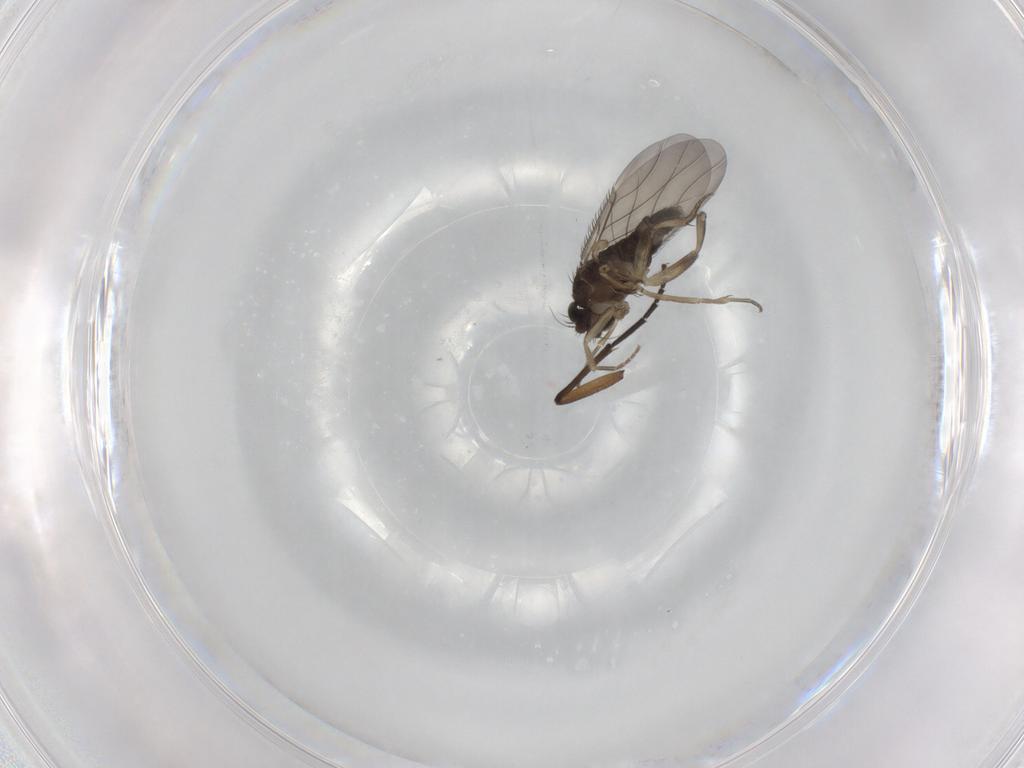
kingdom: Animalia
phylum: Arthropoda
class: Insecta
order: Diptera
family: Phoridae
